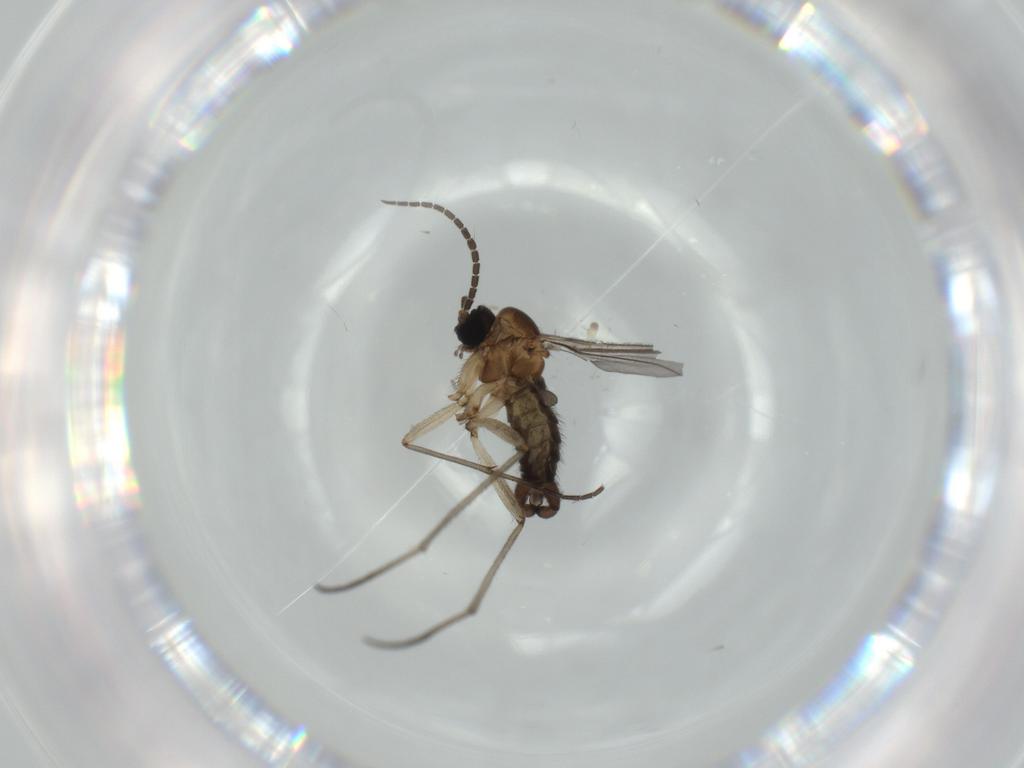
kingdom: Animalia
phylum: Arthropoda
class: Insecta
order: Diptera
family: Sciaridae
